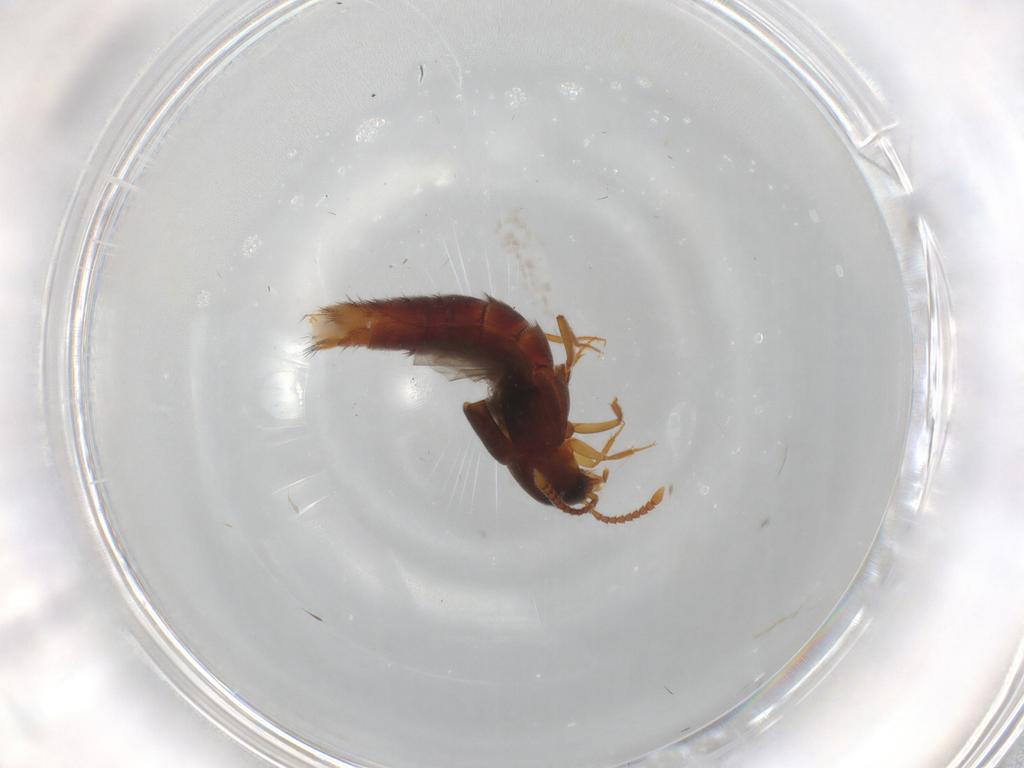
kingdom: Animalia
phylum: Arthropoda
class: Insecta
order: Coleoptera
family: Staphylinidae
